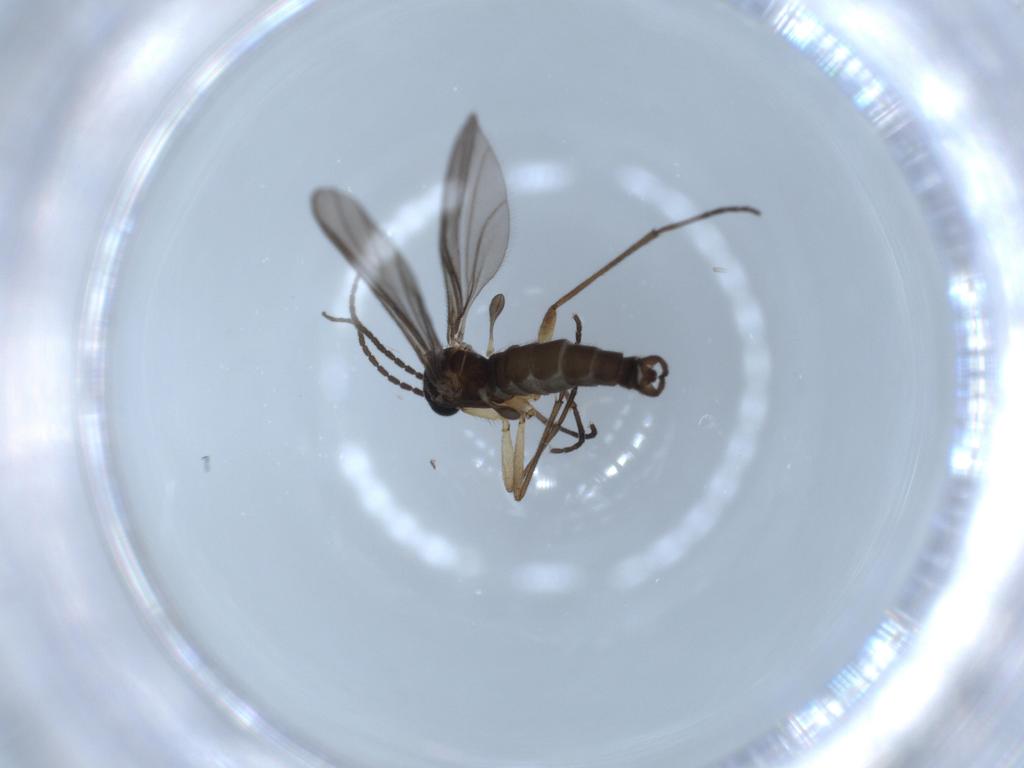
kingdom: Animalia
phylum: Arthropoda
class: Insecta
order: Diptera
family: Sciaridae
